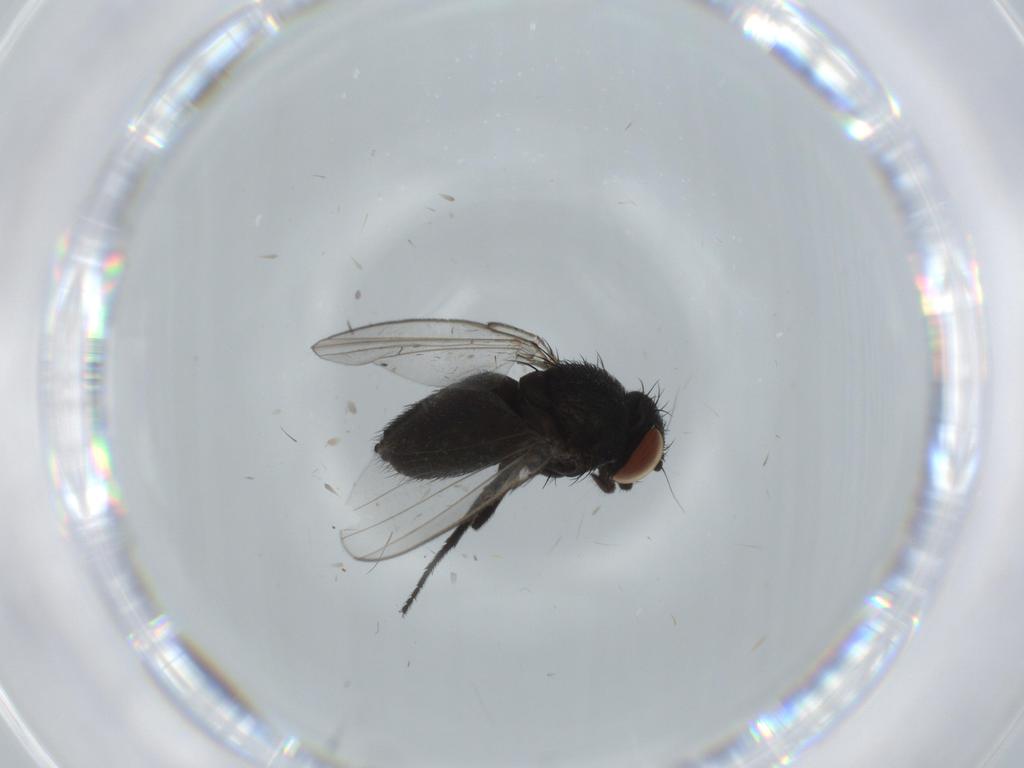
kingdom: Animalia
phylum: Arthropoda
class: Insecta
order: Diptera
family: Milichiidae
